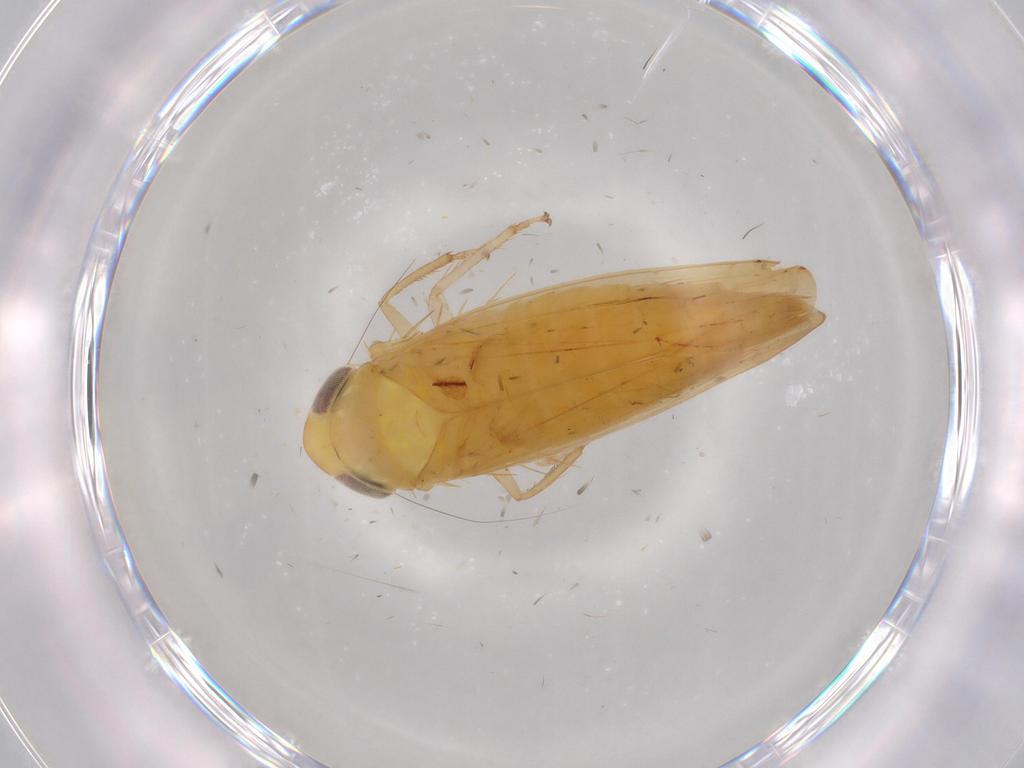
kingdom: Animalia
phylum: Arthropoda
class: Insecta
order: Hemiptera
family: Cicadellidae
